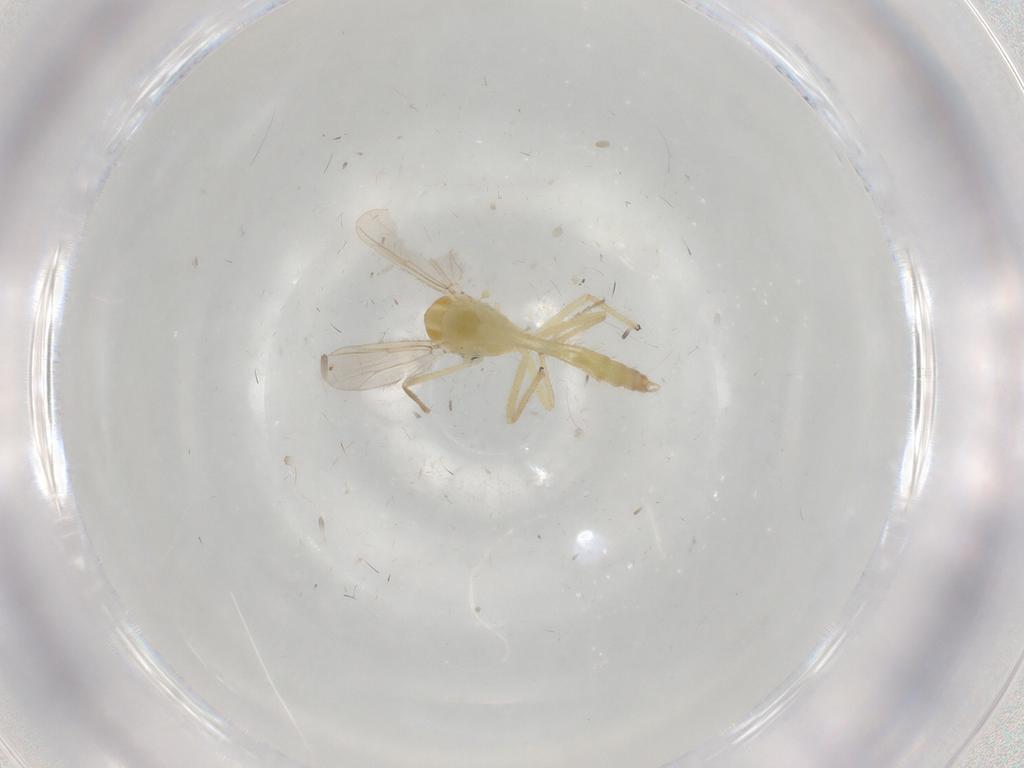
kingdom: Animalia
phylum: Arthropoda
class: Insecta
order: Diptera
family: Chironomidae
